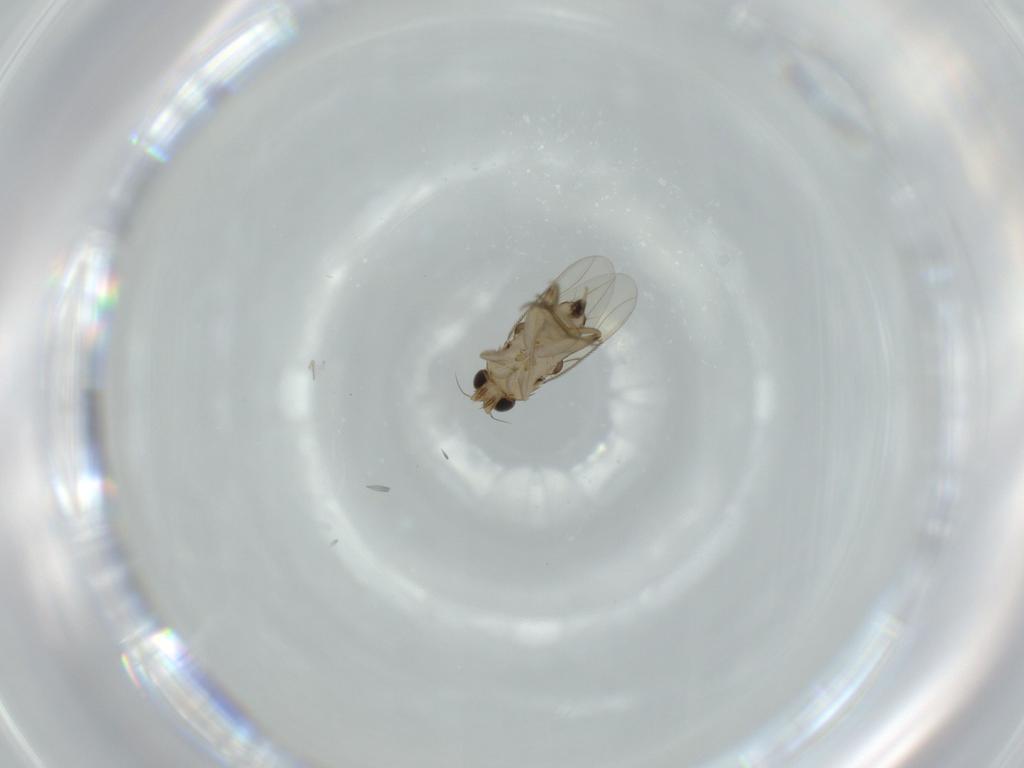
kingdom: Animalia
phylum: Arthropoda
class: Insecta
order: Diptera
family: Phoridae
